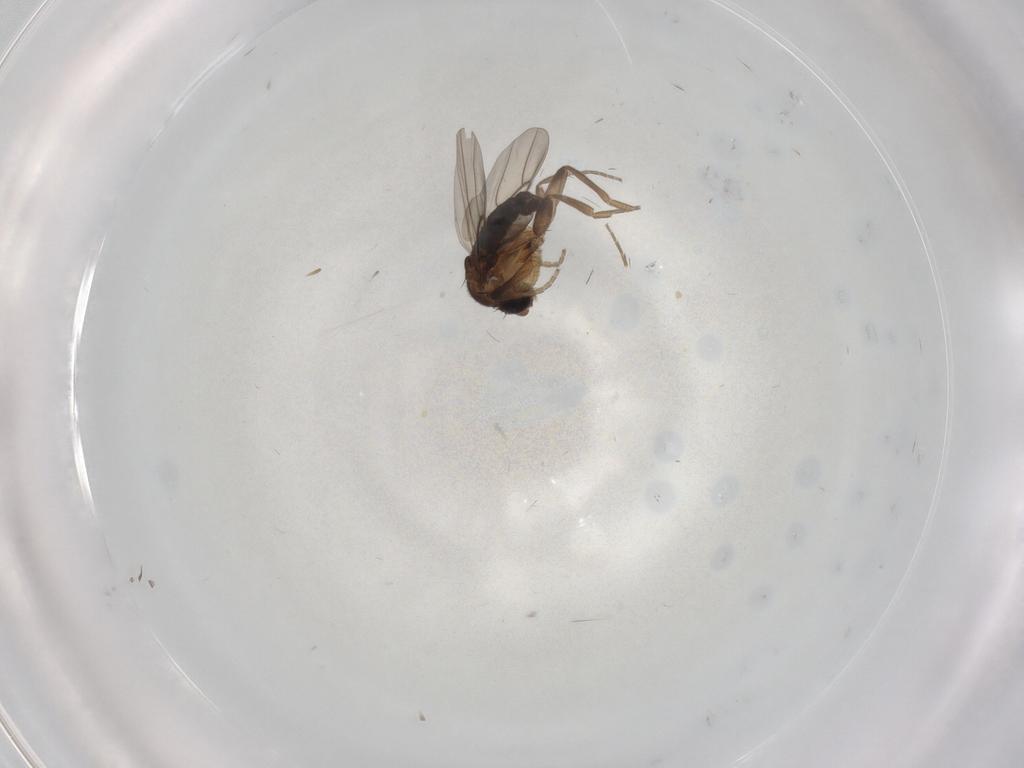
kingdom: Animalia
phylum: Arthropoda
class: Insecta
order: Diptera
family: Phoridae
